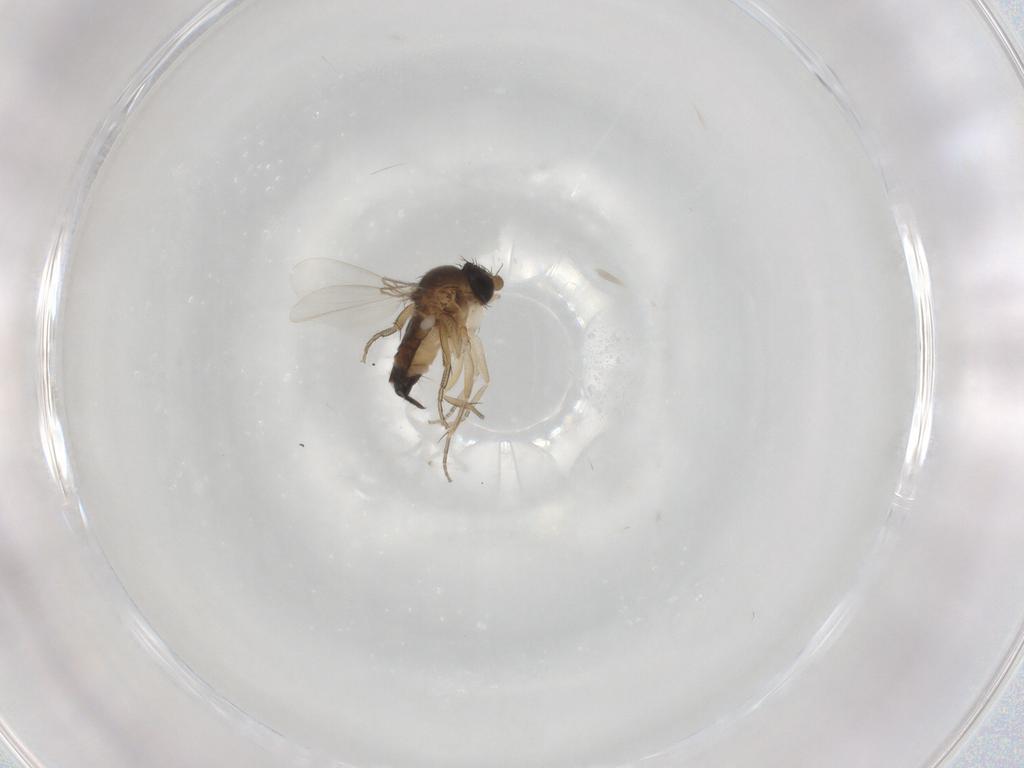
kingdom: Animalia
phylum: Arthropoda
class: Insecta
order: Diptera
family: Phoridae
